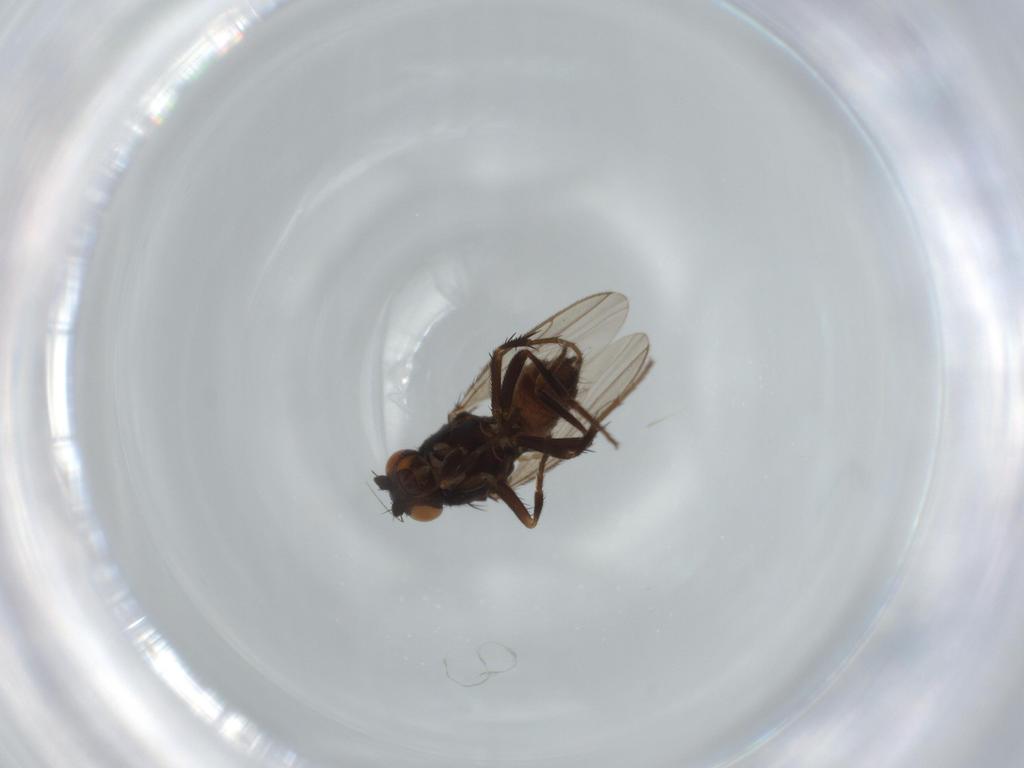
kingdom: Animalia
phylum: Arthropoda
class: Insecta
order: Diptera
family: Sphaeroceridae
